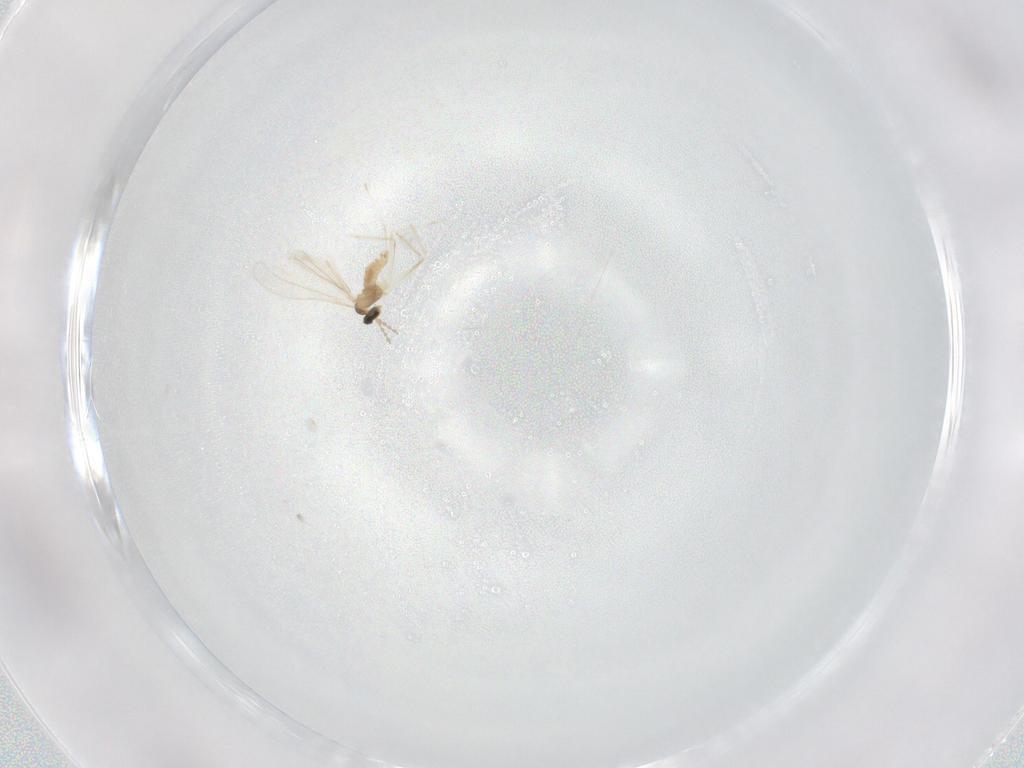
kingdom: Animalia
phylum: Arthropoda
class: Insecta
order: Diptera
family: Cecidomyiidae
